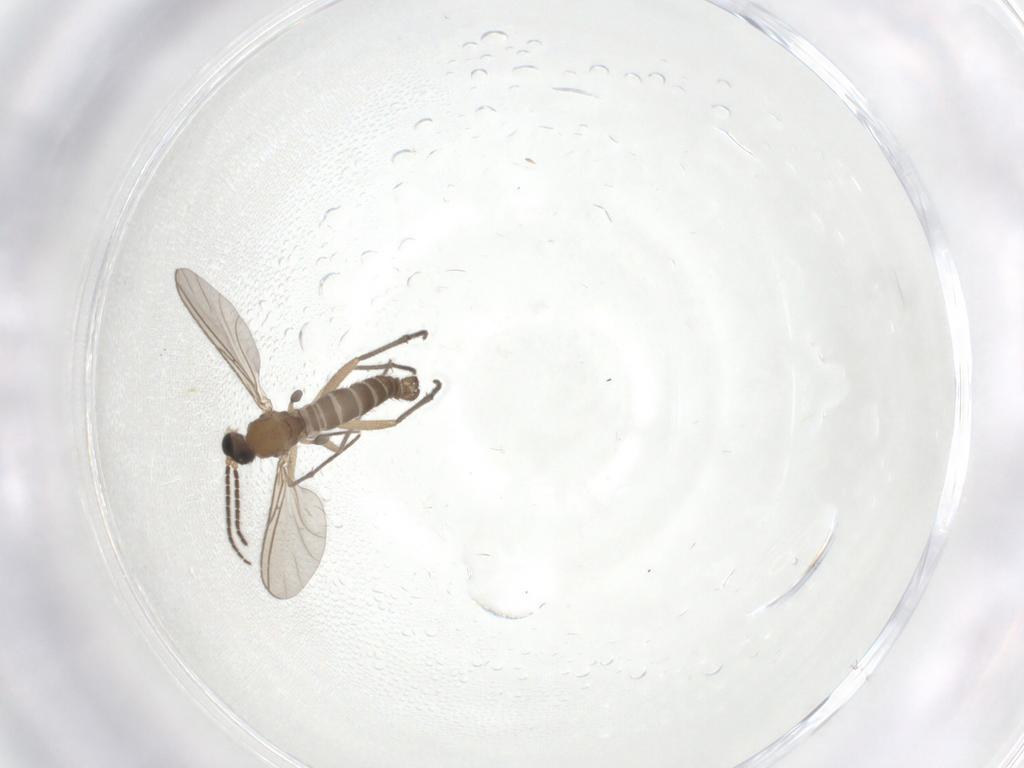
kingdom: Animalia
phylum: Arthropoda
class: Insecta
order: Diptera
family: Sciaridae
